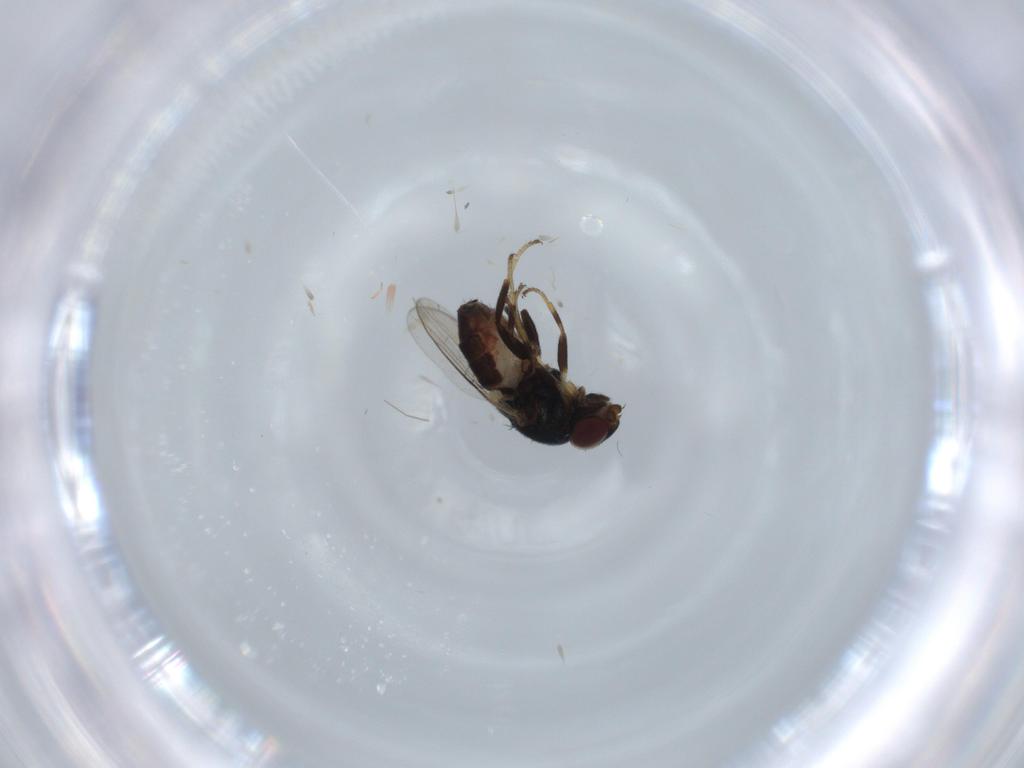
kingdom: Animalia
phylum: Arthropoda
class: Insecta
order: Diptera
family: Chloropidae
